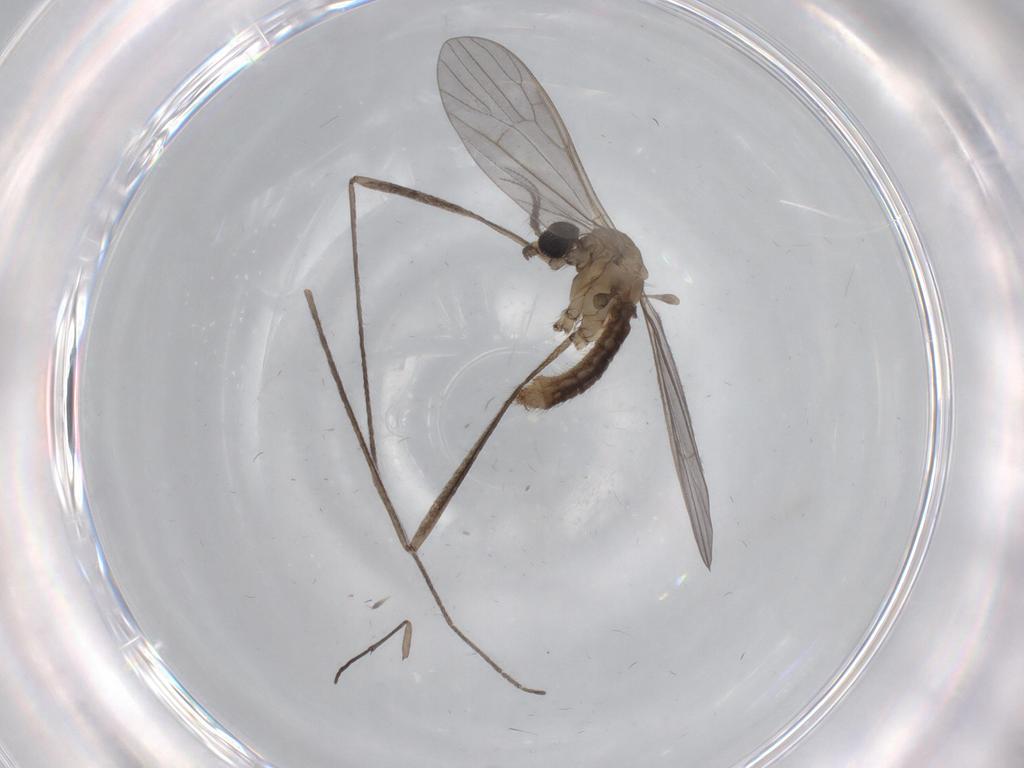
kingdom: Animalia
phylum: Arthropoda
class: Insecta
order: Diptera
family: Limoniidae
